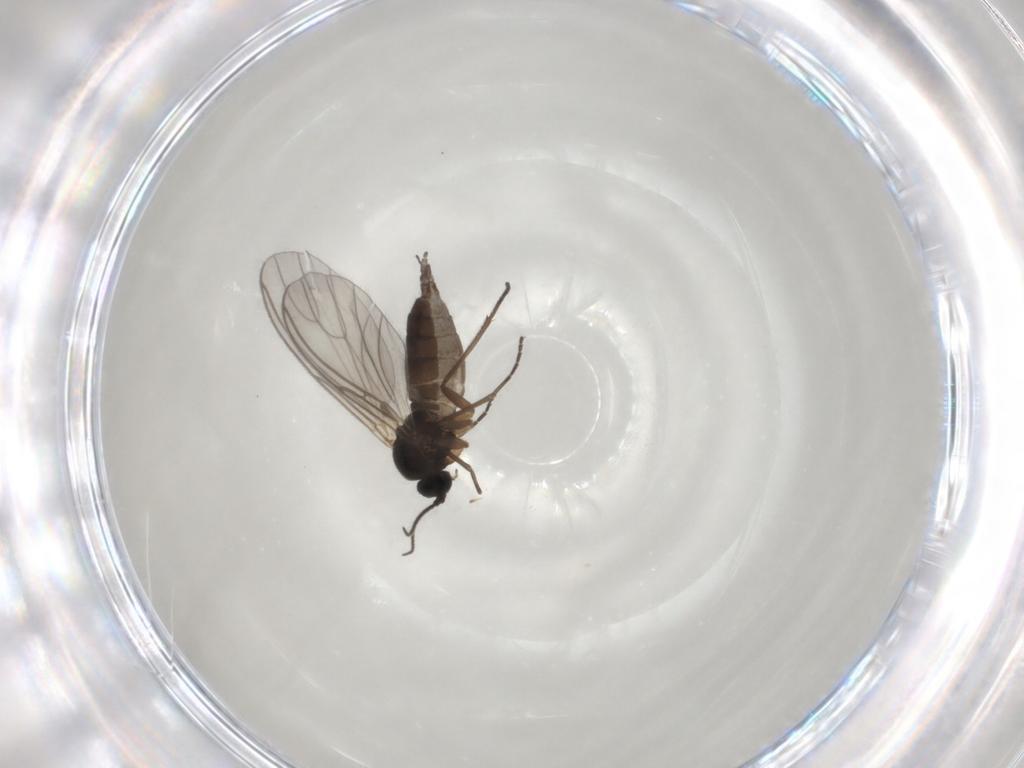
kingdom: Animalia
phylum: Arthropoda
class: Insecta
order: Diptera
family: Sciaridae
